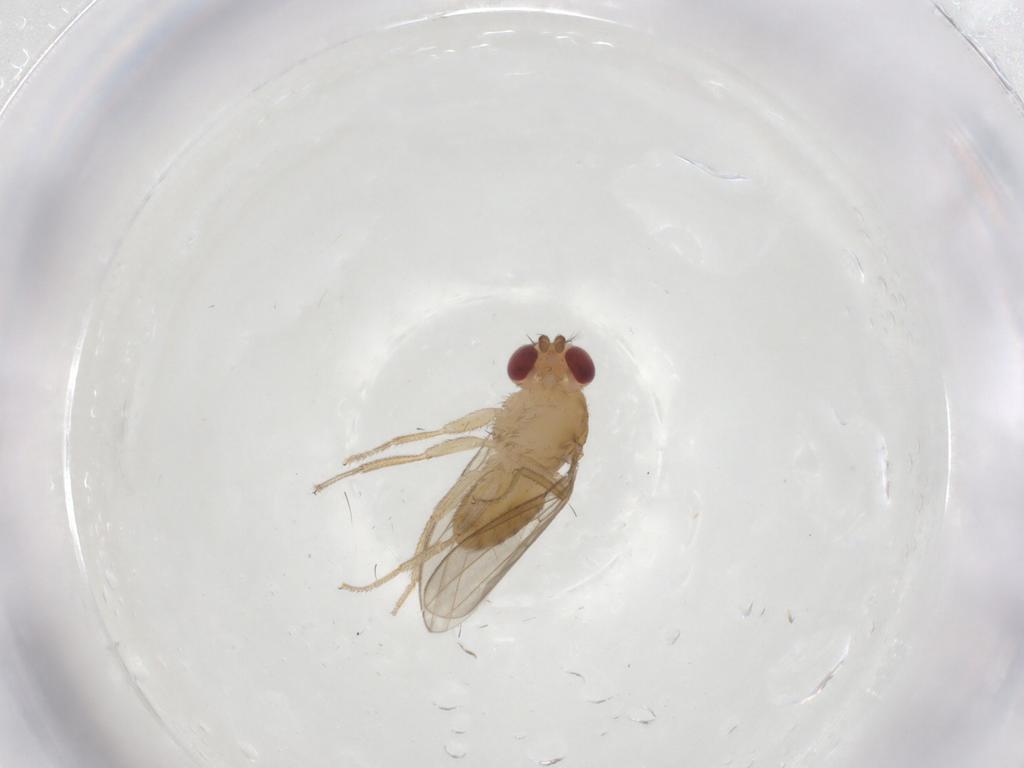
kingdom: Animalia
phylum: Arthropoda
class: Insecta
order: Diptera
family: Drosophilidae
